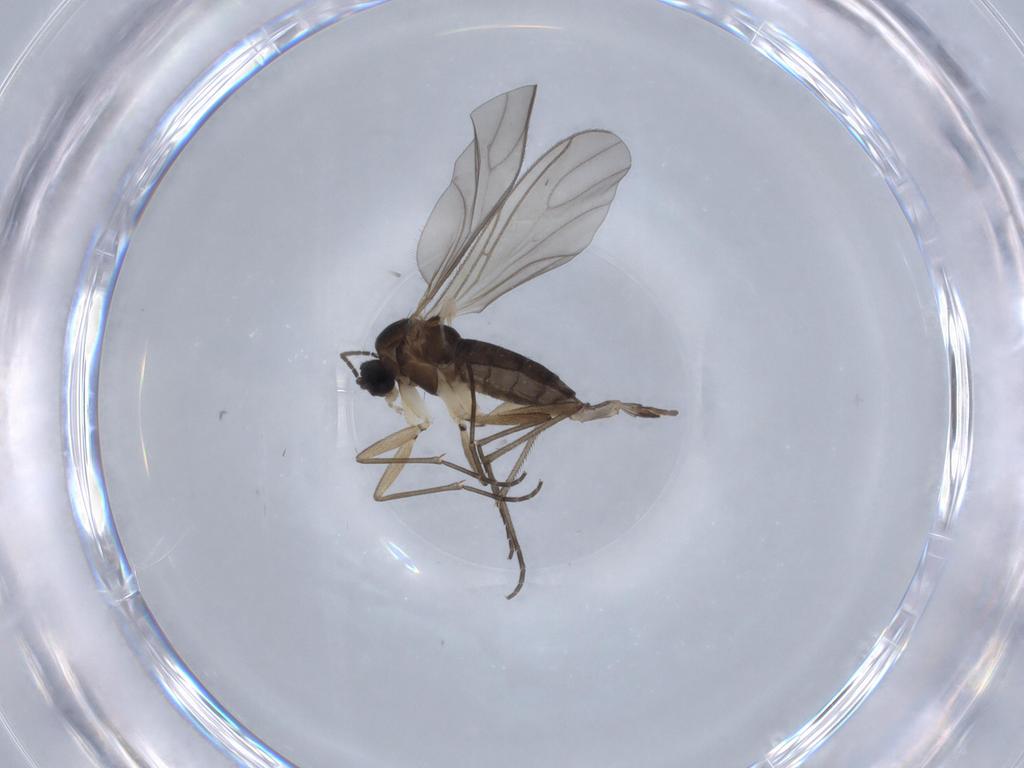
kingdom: Animalia
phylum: Arthropoda
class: Insecta
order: Diptera
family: Sciaridae
